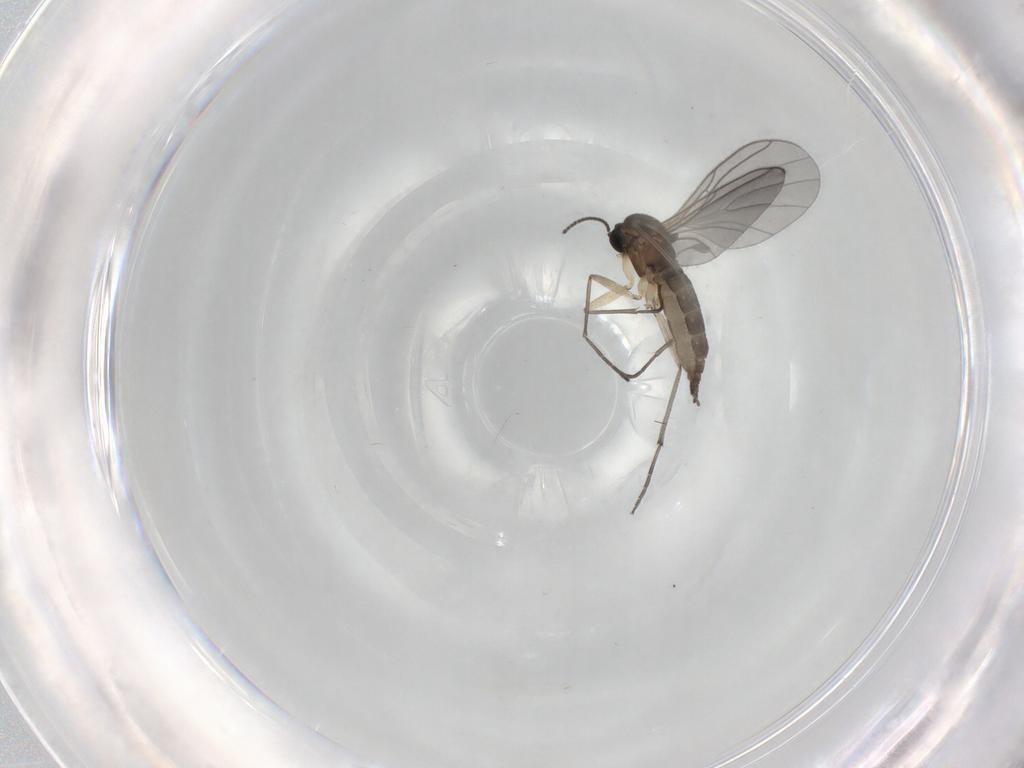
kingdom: Animalia
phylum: Arthropoda
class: Insecta
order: Diptera
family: Sciaridae
